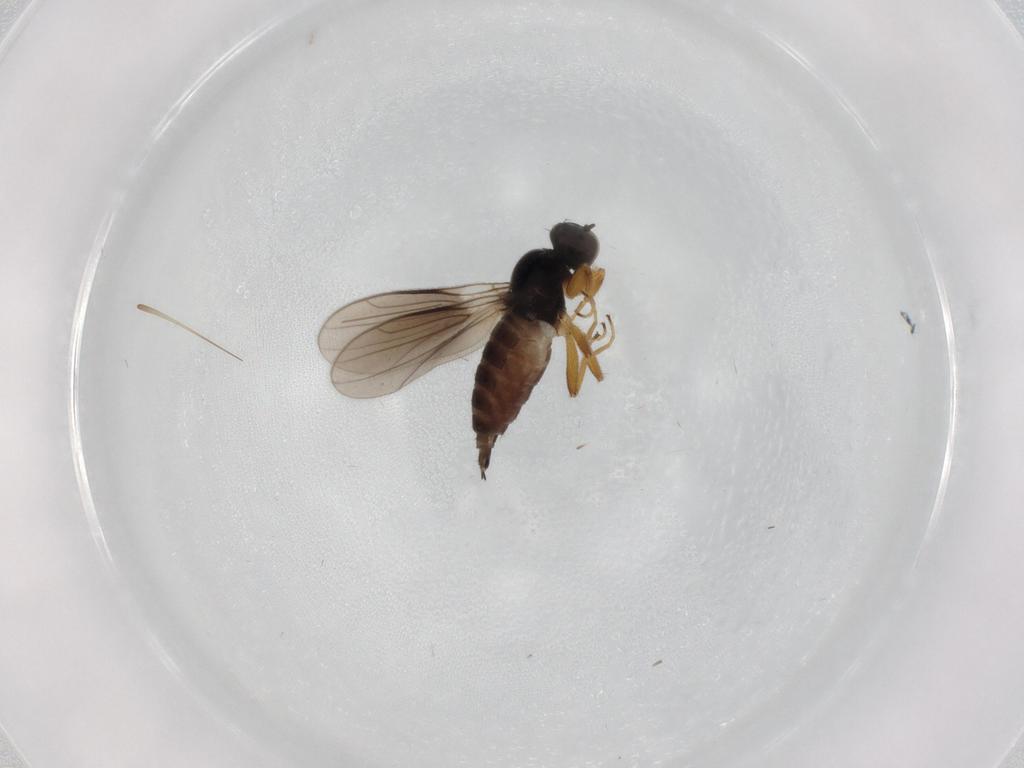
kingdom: Animalia
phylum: Arthropoda
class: Insecta
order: Diptera
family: Hybotidae
